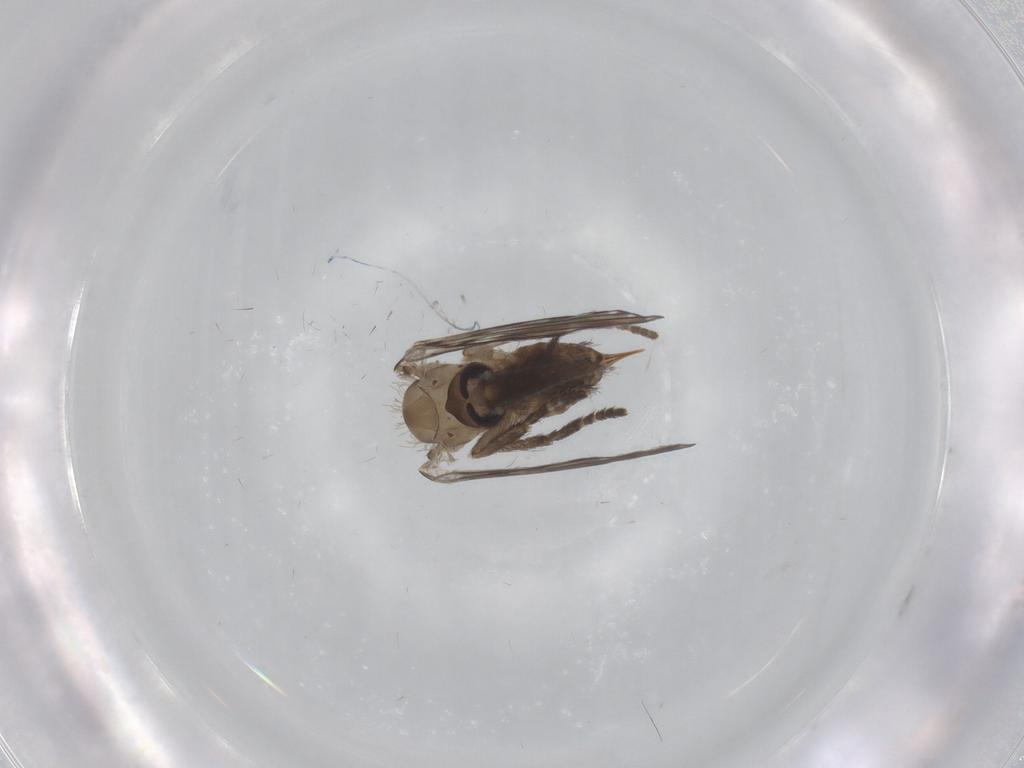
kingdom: Animalia
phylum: Arthropoda
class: Insecta
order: Diptera
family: Psychodidae
